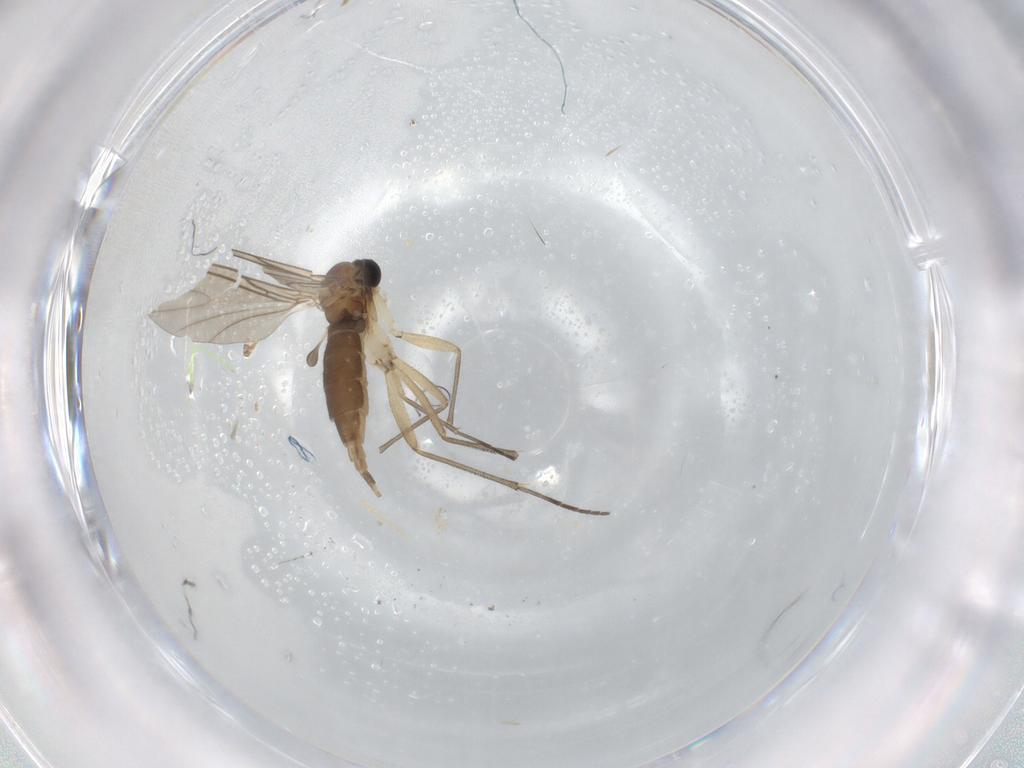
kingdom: Animalia
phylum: Arthropoda
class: Insecta
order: Diptera
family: Sciaridae
